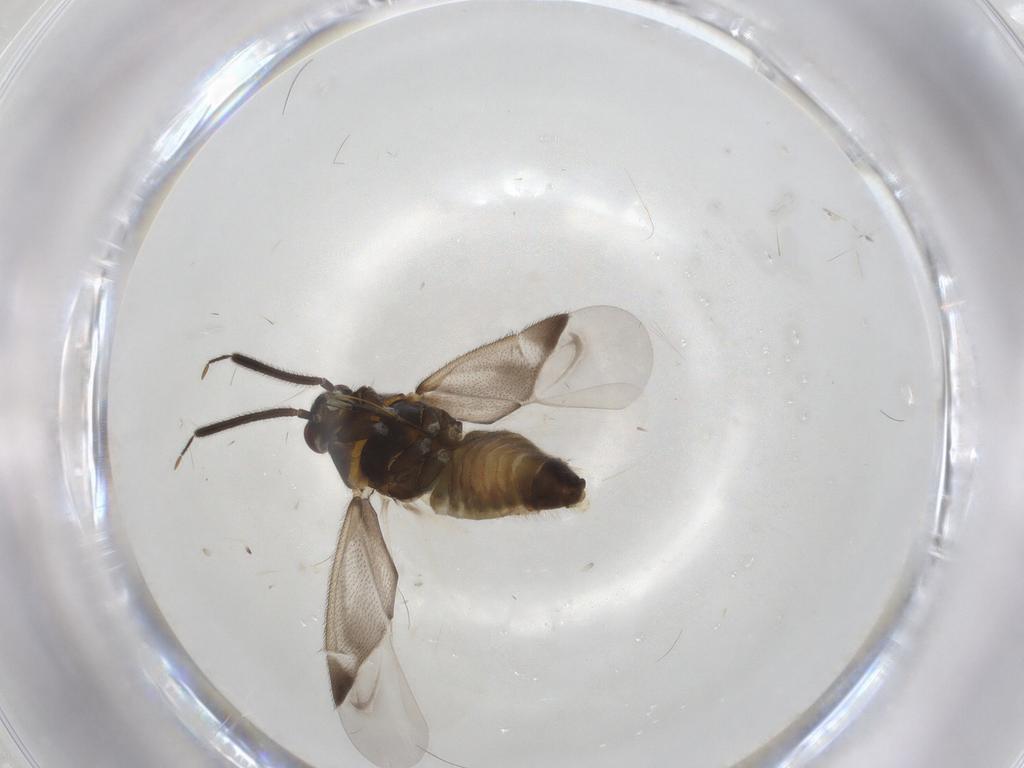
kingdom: Animalia
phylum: Arthropoda
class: Insecta
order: Hemiptera
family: Miridae
